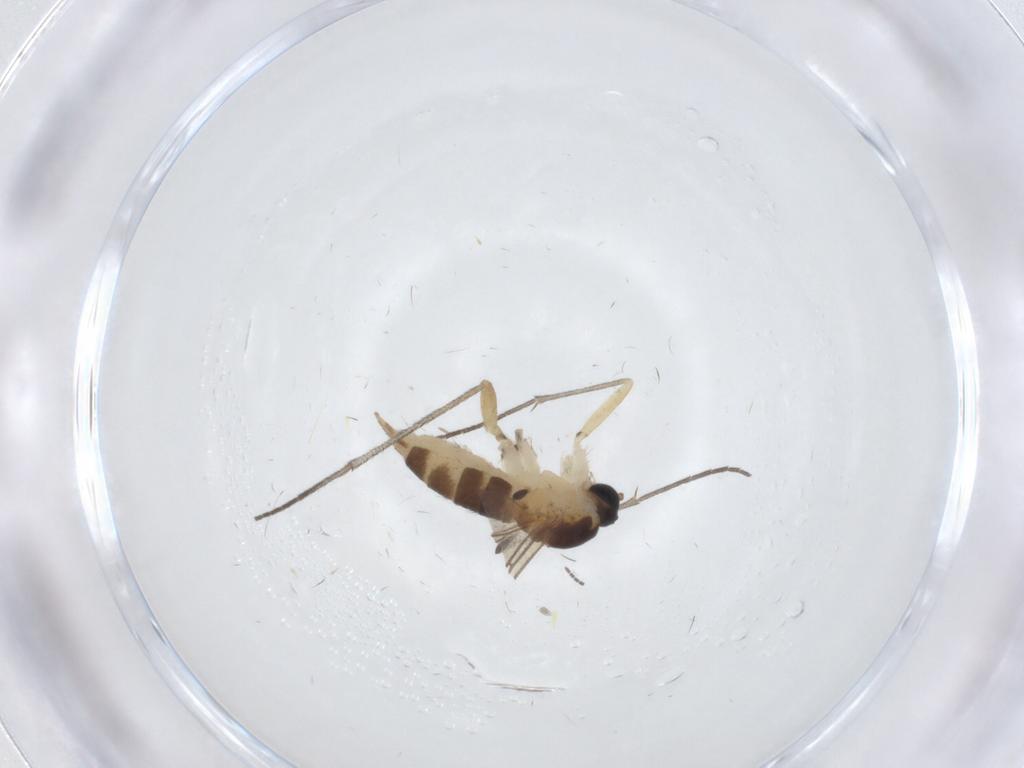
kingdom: Animalia
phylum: Arthropoda
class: Insecta
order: Diptera
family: Sciaridae
